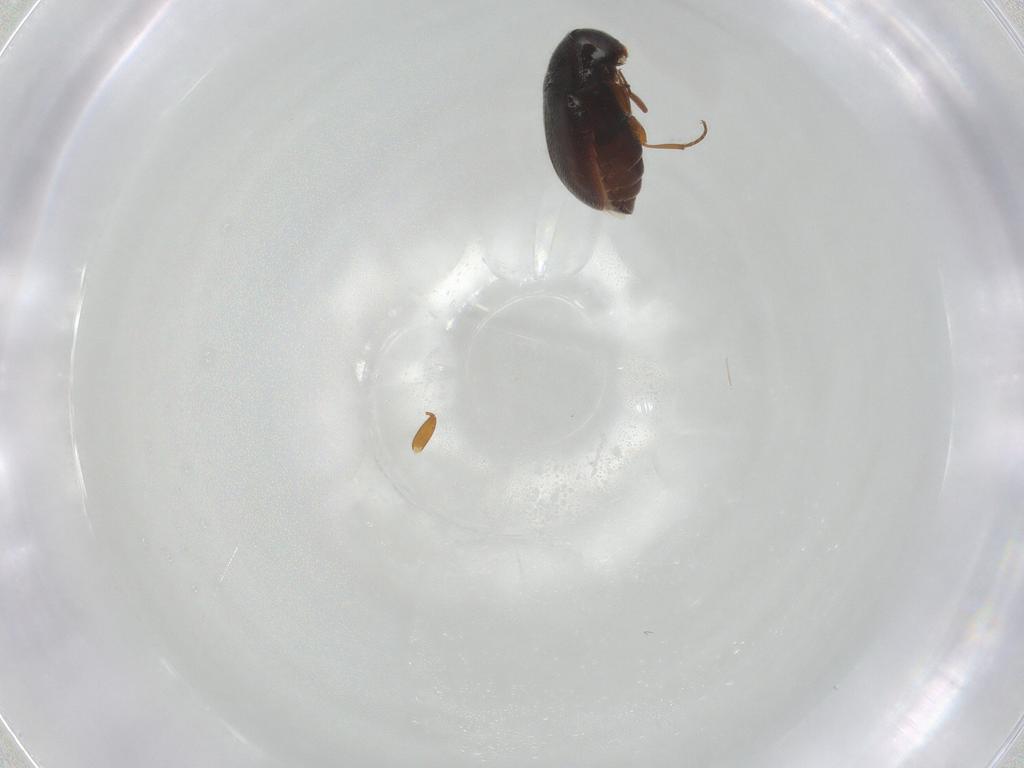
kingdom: Animalia
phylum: Arthropoda
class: Insecta
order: Coleoptera
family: Rhadalidae
